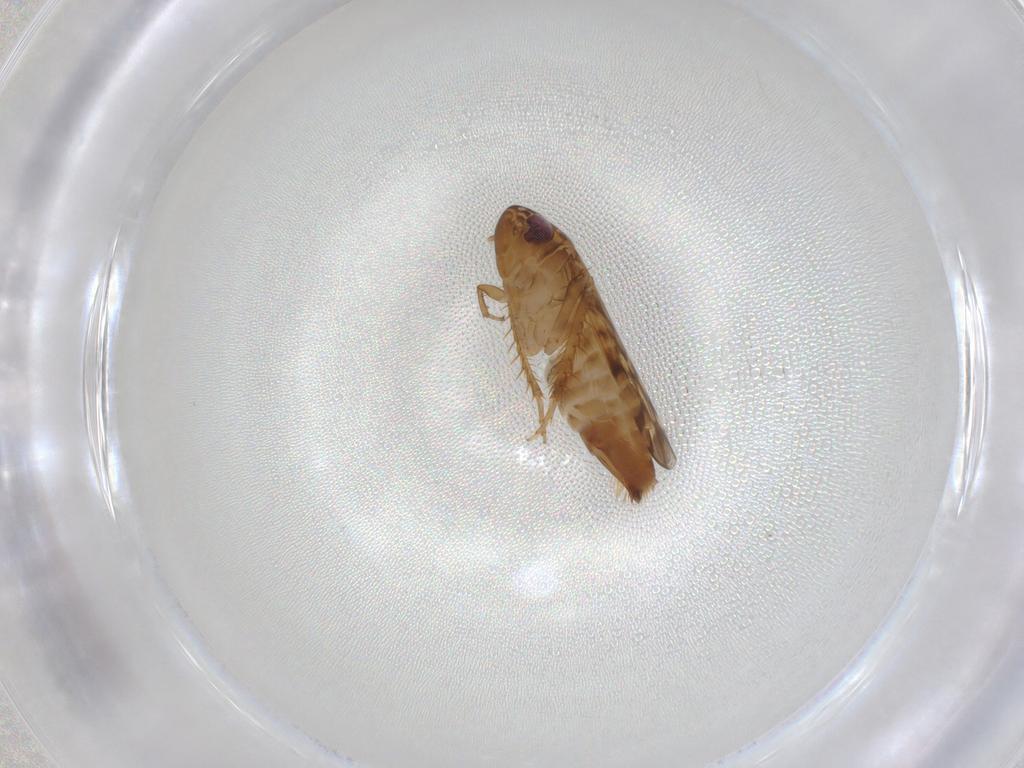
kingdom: Animalia
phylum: Arthropoda
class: Insecta
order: Hemiptera
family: Cicadellidae
